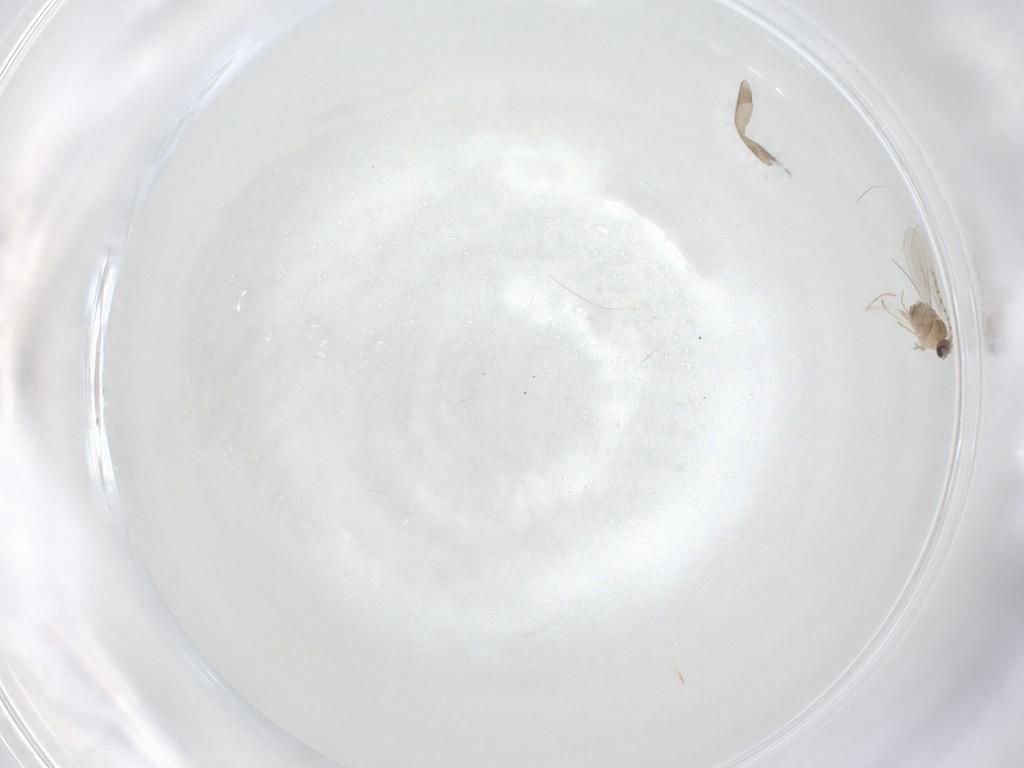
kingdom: Animalia
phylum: Arthropoda
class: Insecta
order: Diptera
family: Cecidomyiidae
